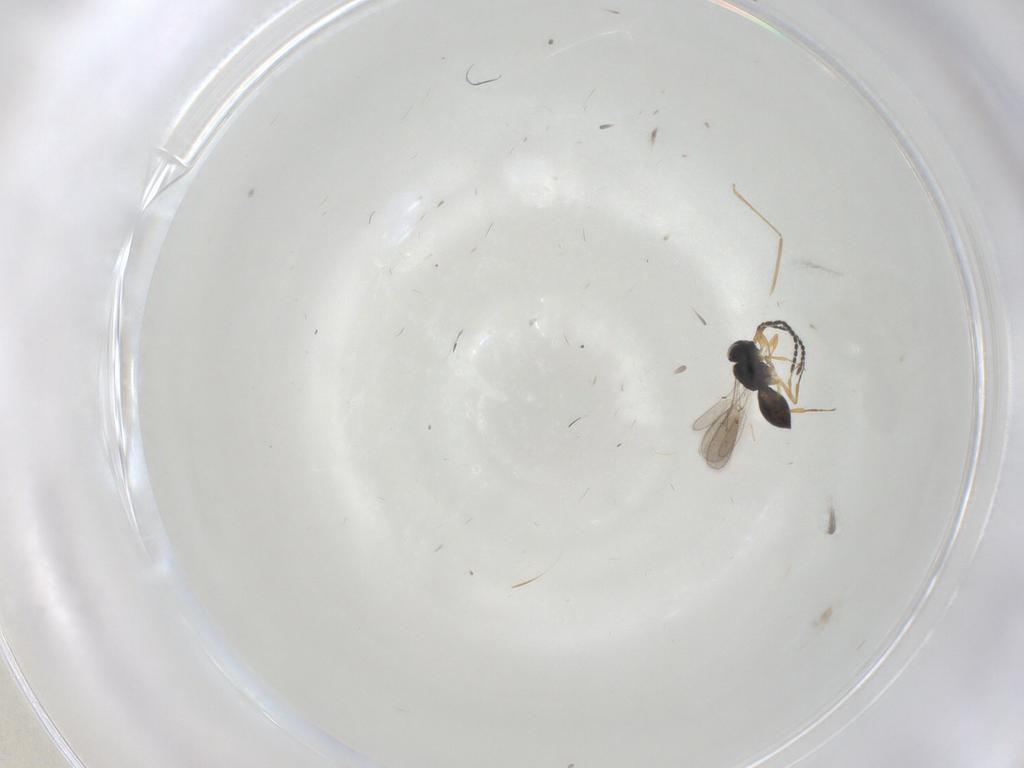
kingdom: Animalia
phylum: Arthropoda
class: Insecta
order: Hymenoptera
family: Scelionidae
